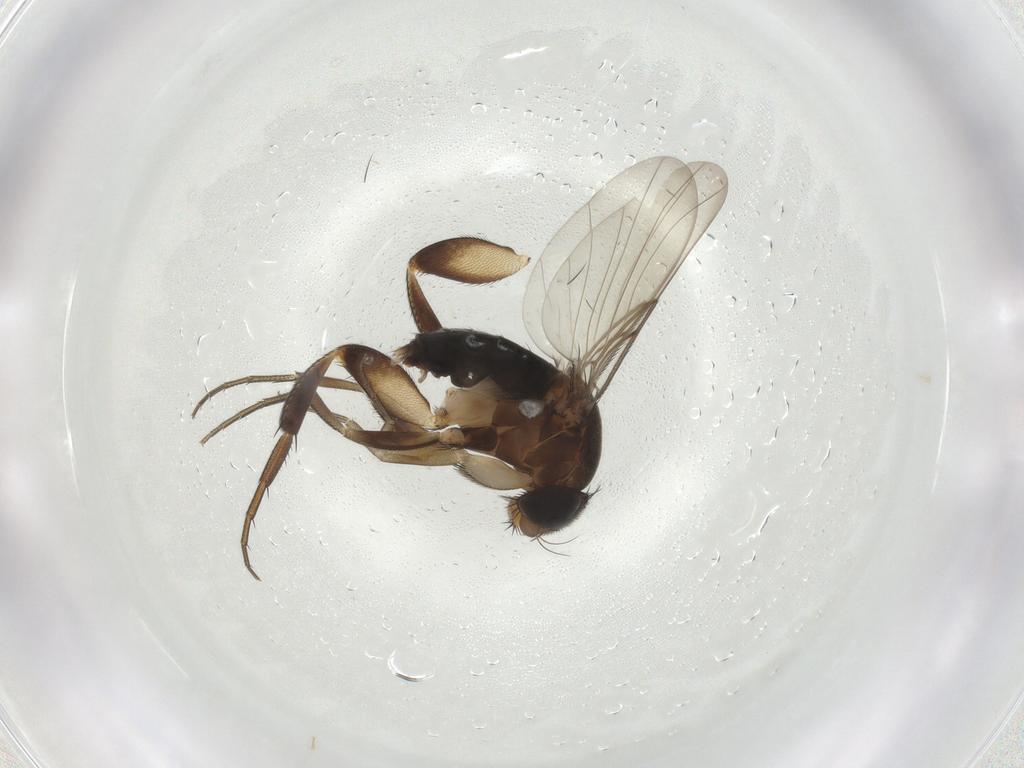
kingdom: Animalia
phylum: Arthropoda
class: Insecta
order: Diptera
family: Phoridae
